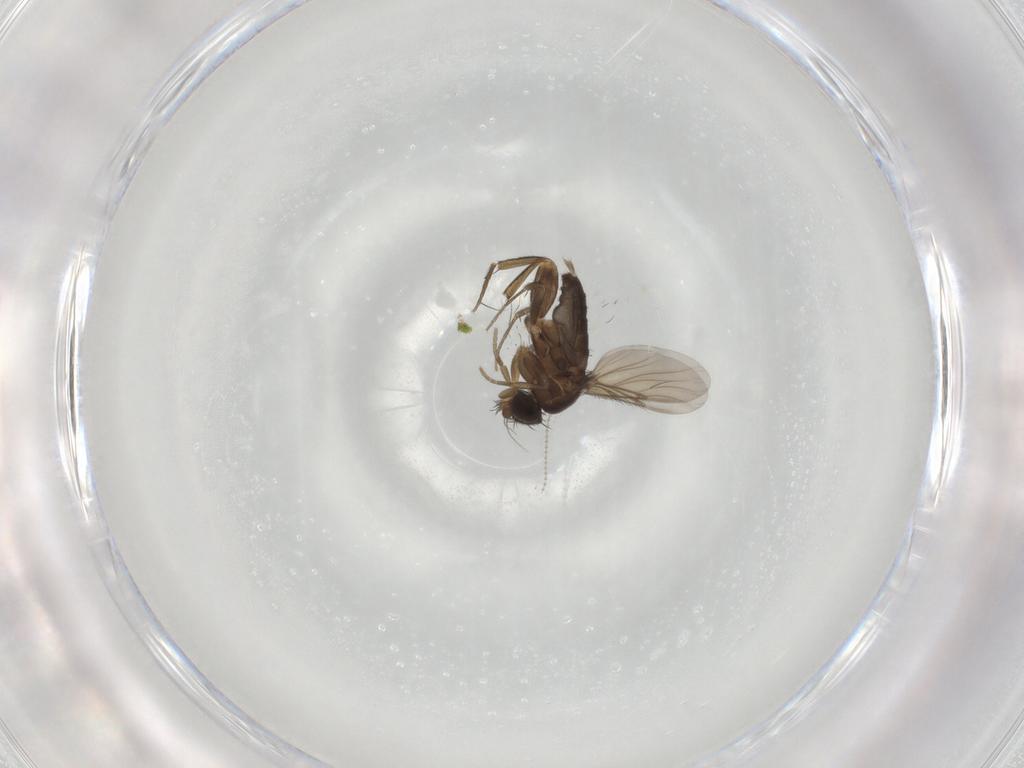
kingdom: Animalia
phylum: Arthropoda
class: Insecta
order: Diptera
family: Phoridae
